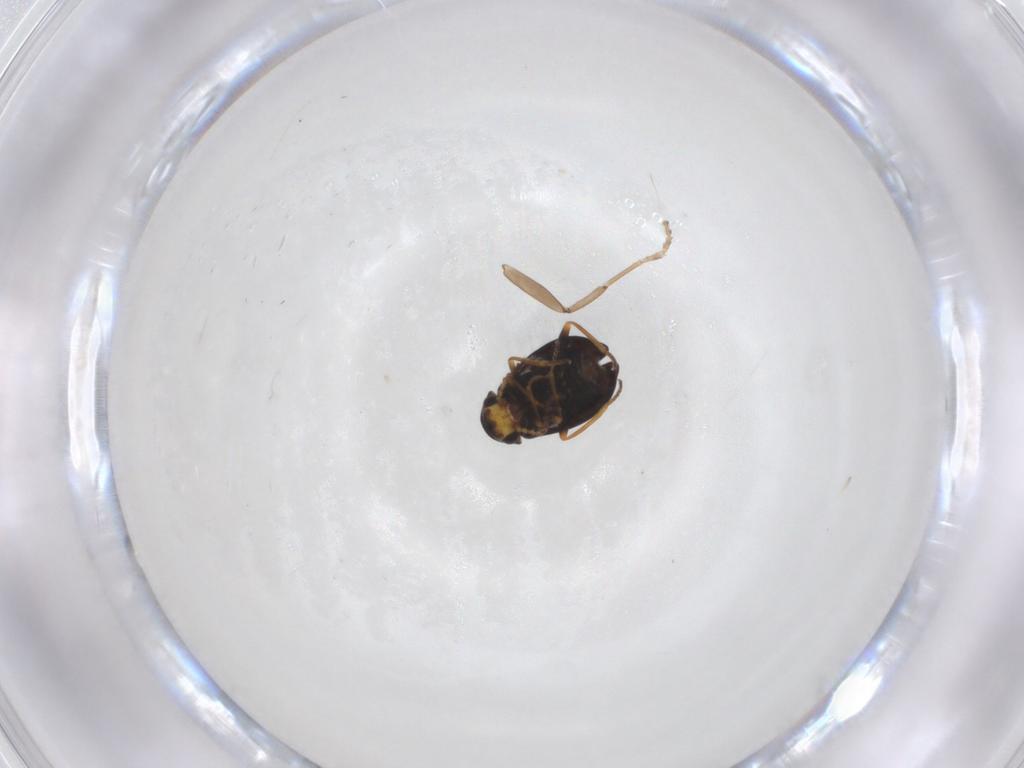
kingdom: Animalia
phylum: Arthropoda
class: Insecta
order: Coleoptera
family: Melyridae
